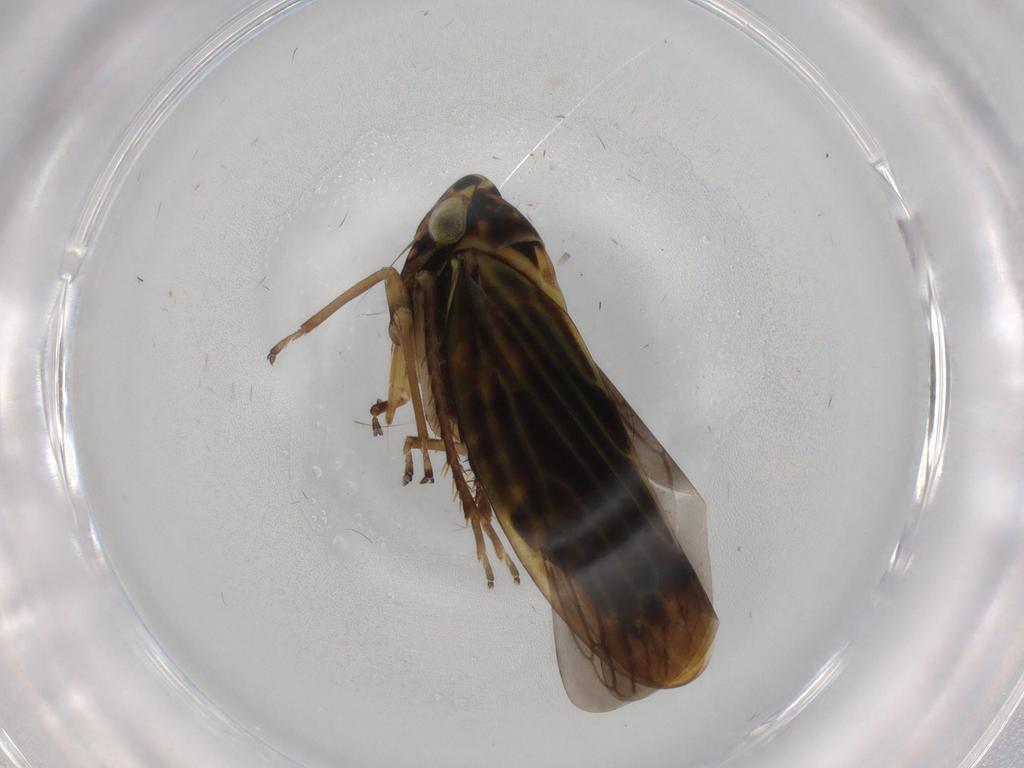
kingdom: Animalia
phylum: Arthropoda
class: Insecta
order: Hemiptera
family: Cicadellidae
